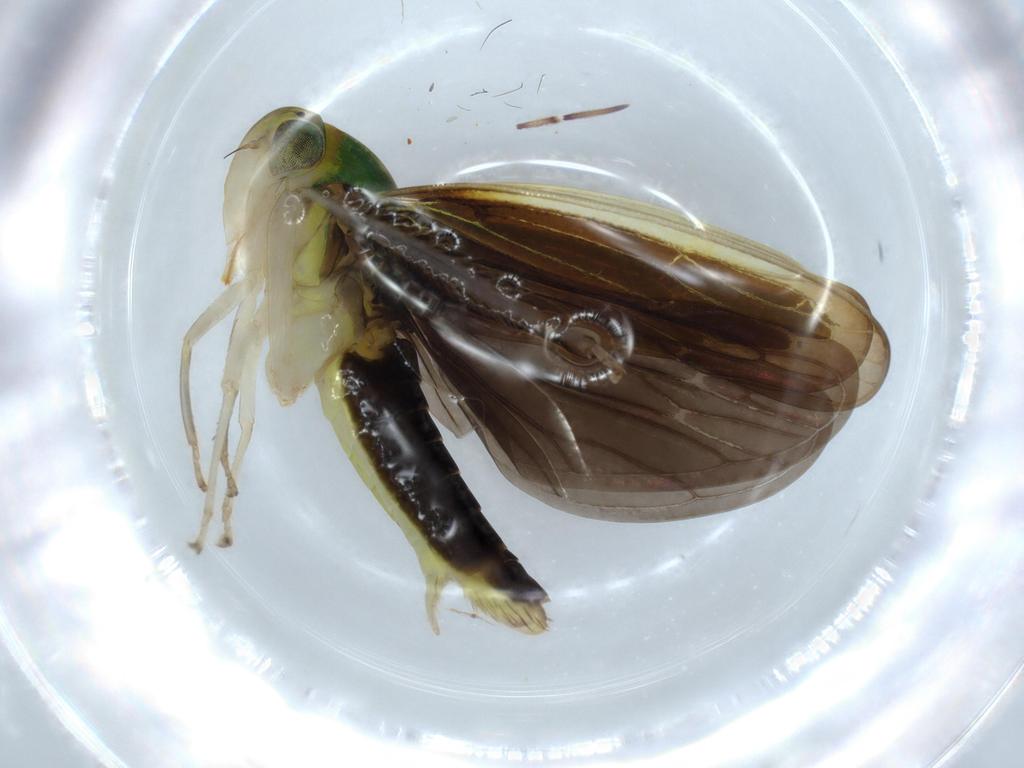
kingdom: Animalia
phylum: Arthropoda
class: Insecta
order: Hemiptera
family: Cicadellidae
